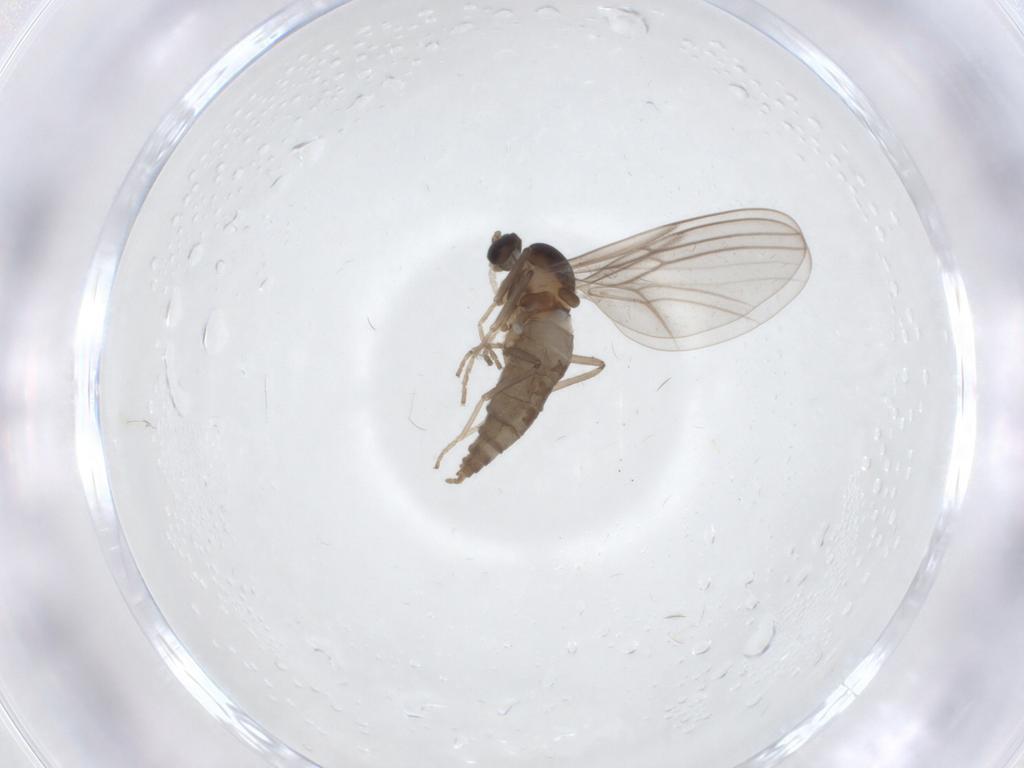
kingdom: Animalia
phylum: Arthropoda
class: Insecta
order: Diptera
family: Cecidomyiidae
